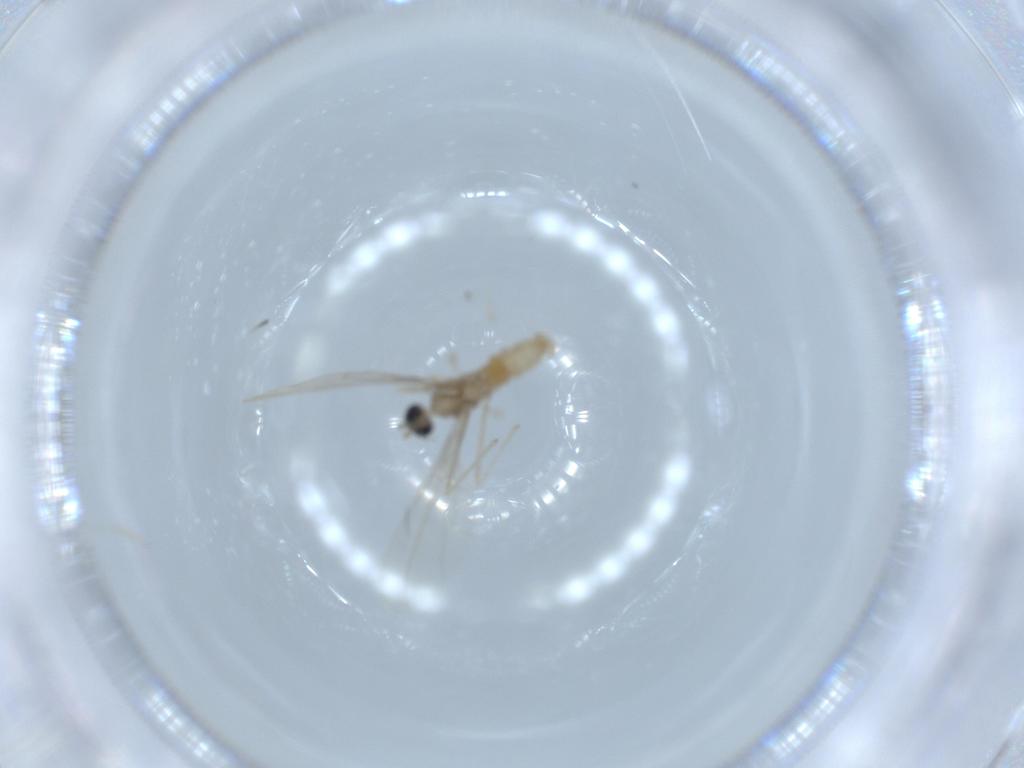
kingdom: Animalia
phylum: Arthropoda
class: Insecta
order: Diptera
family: Cecidomyiidae
